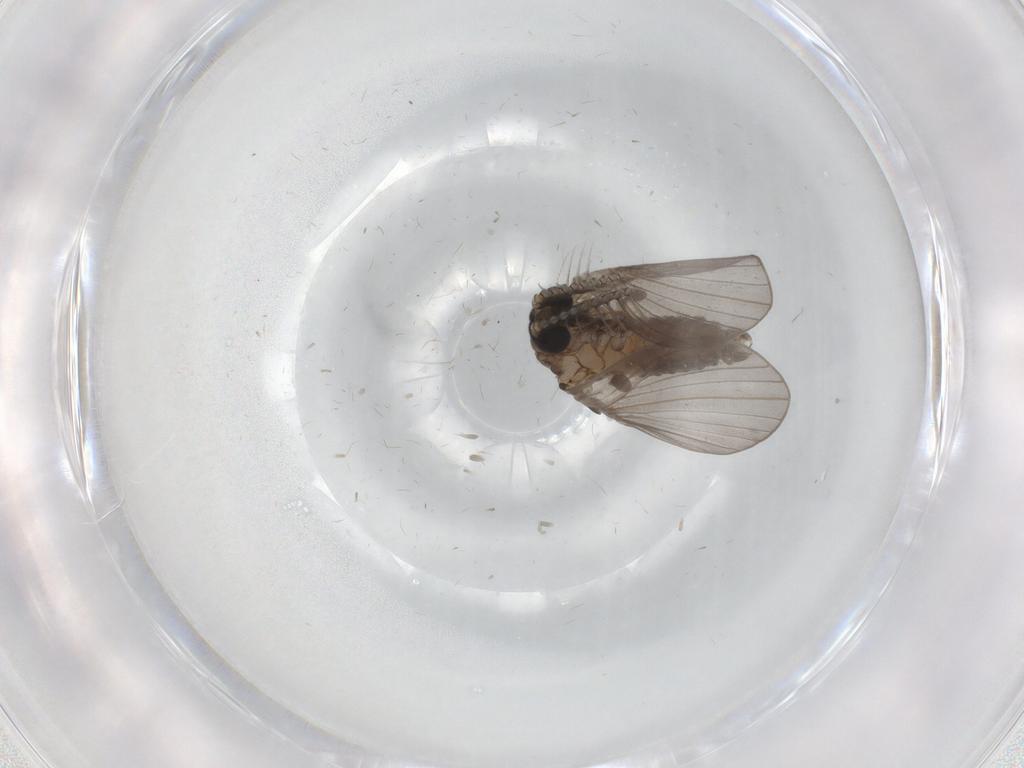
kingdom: Animalia
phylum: Arthropoda
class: Insecta
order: Diptera
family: Psychodidae
